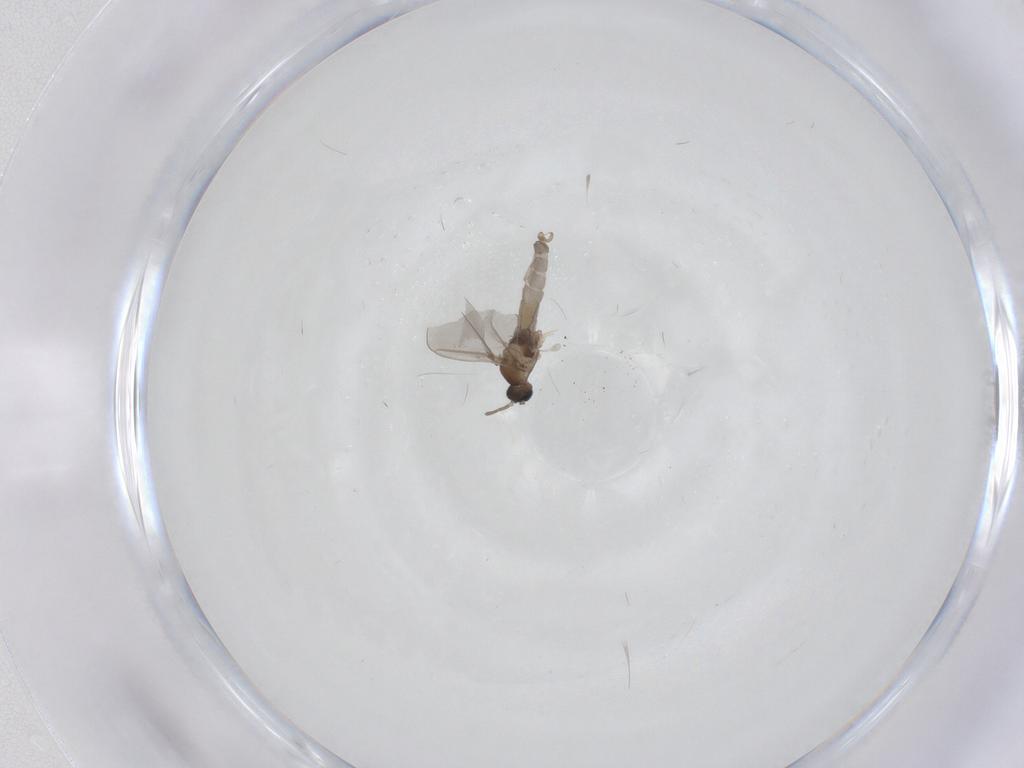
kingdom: Animalia
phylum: Arthropoda
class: Insecta
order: Diptera
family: Cecidomyiidae
